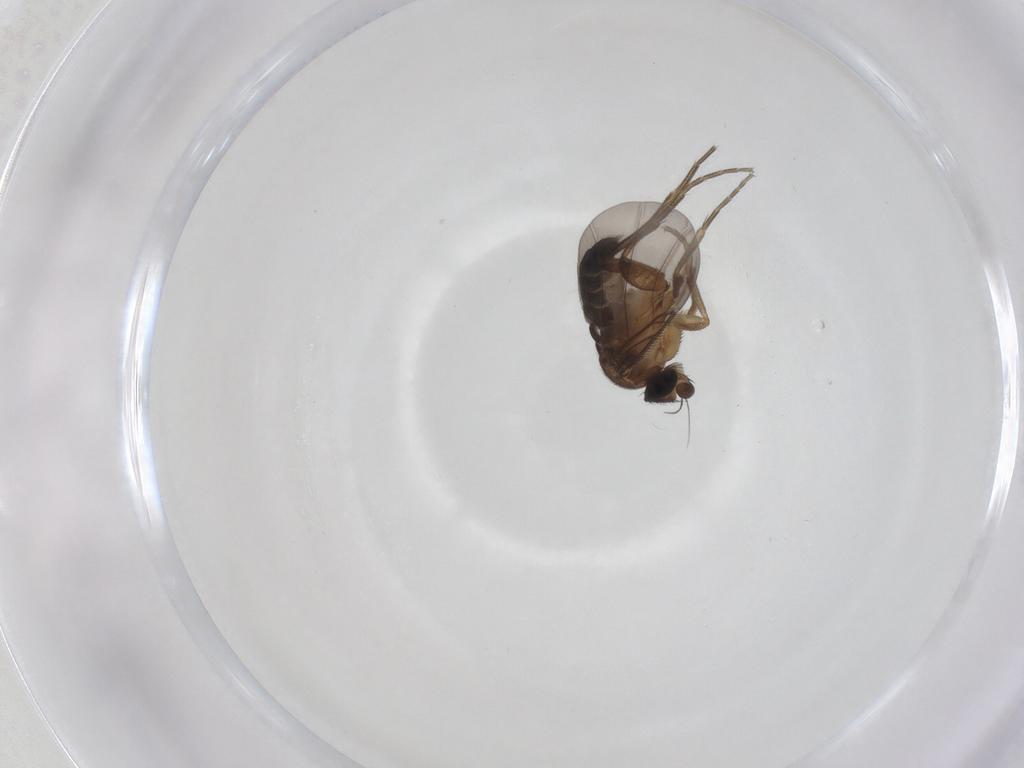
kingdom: Animalia
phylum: Arthropoda
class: Insecta
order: Diptera
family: Phoridae
